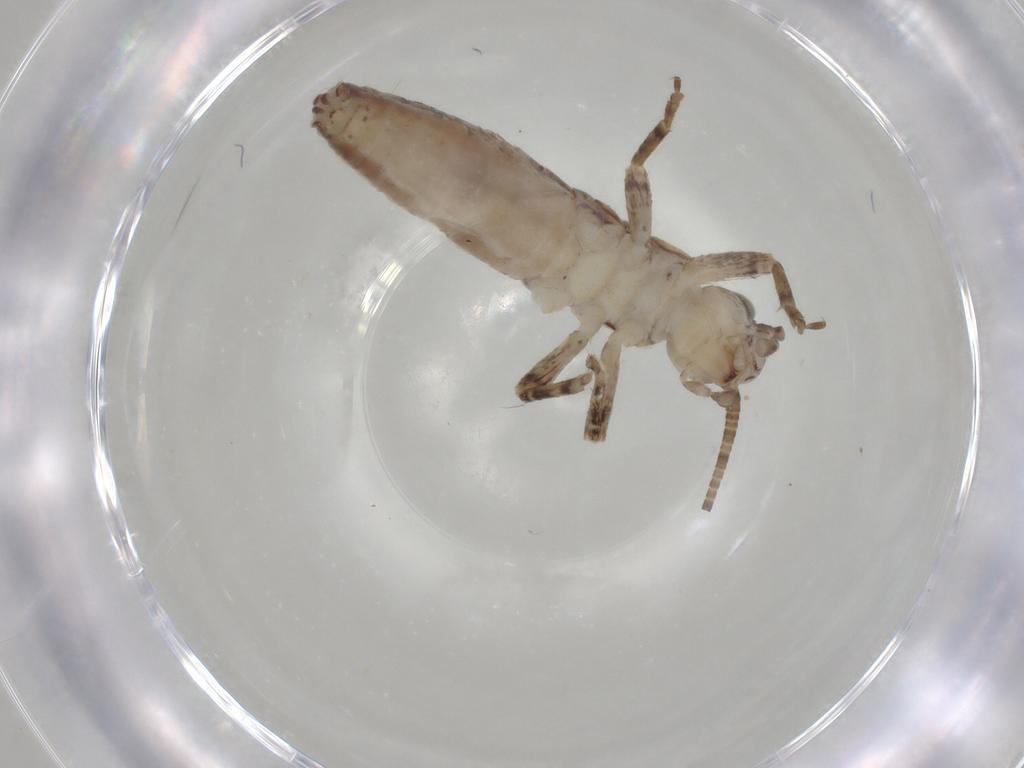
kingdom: Animalia
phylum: Arthropoda
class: Insecta
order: Orthoptera
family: Mogoplistidae
